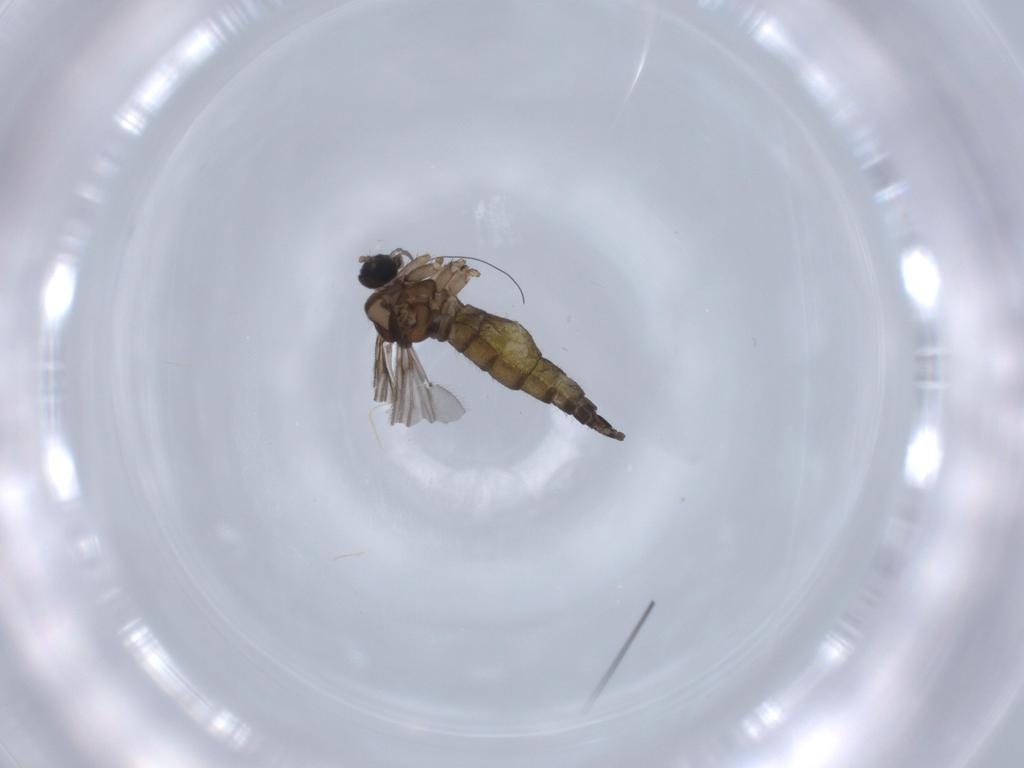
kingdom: Animalia
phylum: Arthropoda
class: Insecta
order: Diptera
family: Sciaridae
